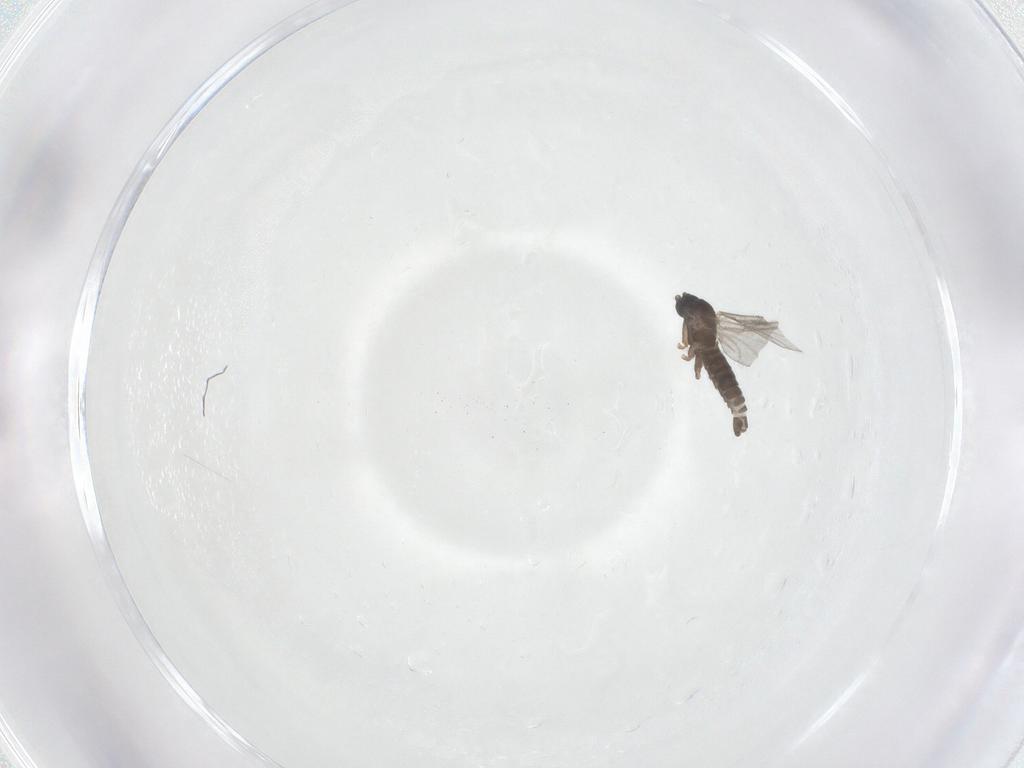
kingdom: Animalia
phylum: Arthropoda
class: Insecta
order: Diptera
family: Sciaridae
